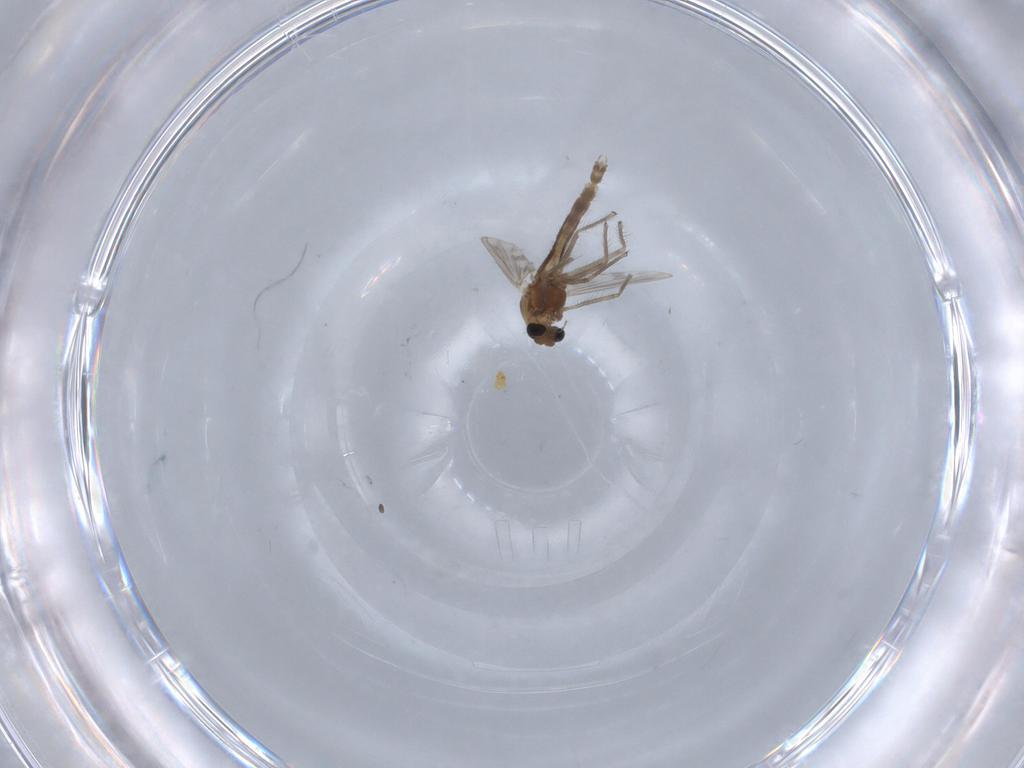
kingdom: Animalia
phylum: Arthropoda
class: Insecta
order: Diptera
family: Chironomidae
